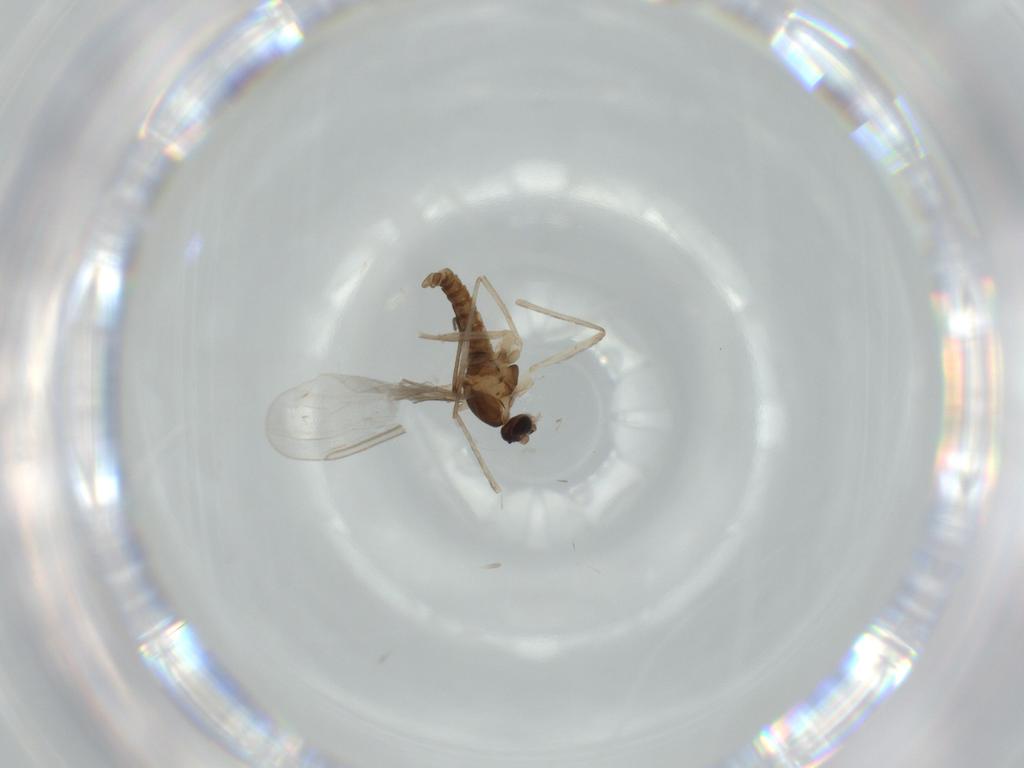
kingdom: Animalia
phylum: Arthropoda
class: Insecta
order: Diptera
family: Cecidomyiidae
